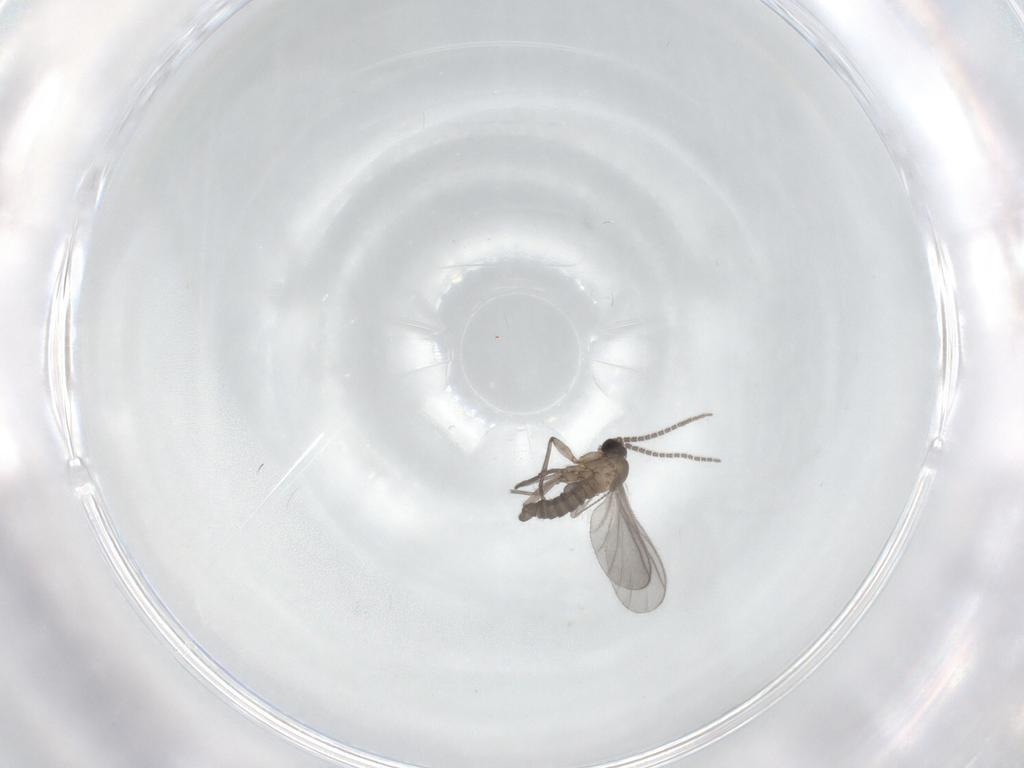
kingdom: Animalia
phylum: Arthropoda
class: Insecta
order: Diptera
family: Sciaridae
